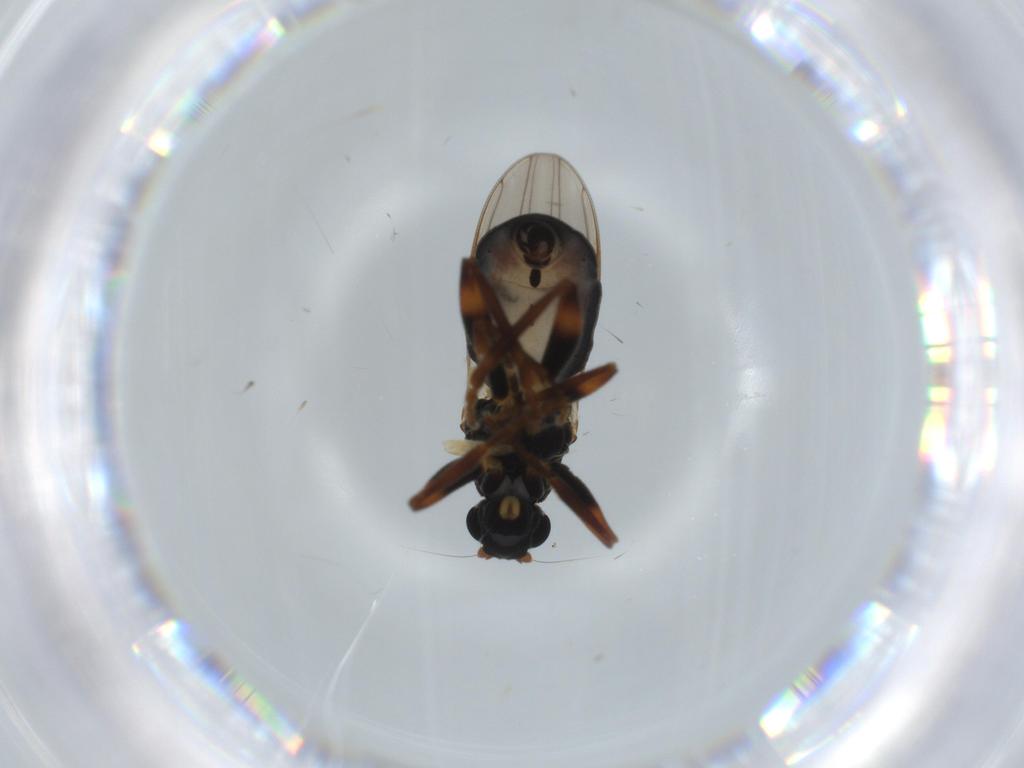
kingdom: Animalia
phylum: Arthropoda
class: Insecta
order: Diptera
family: Sphaeroceridae
